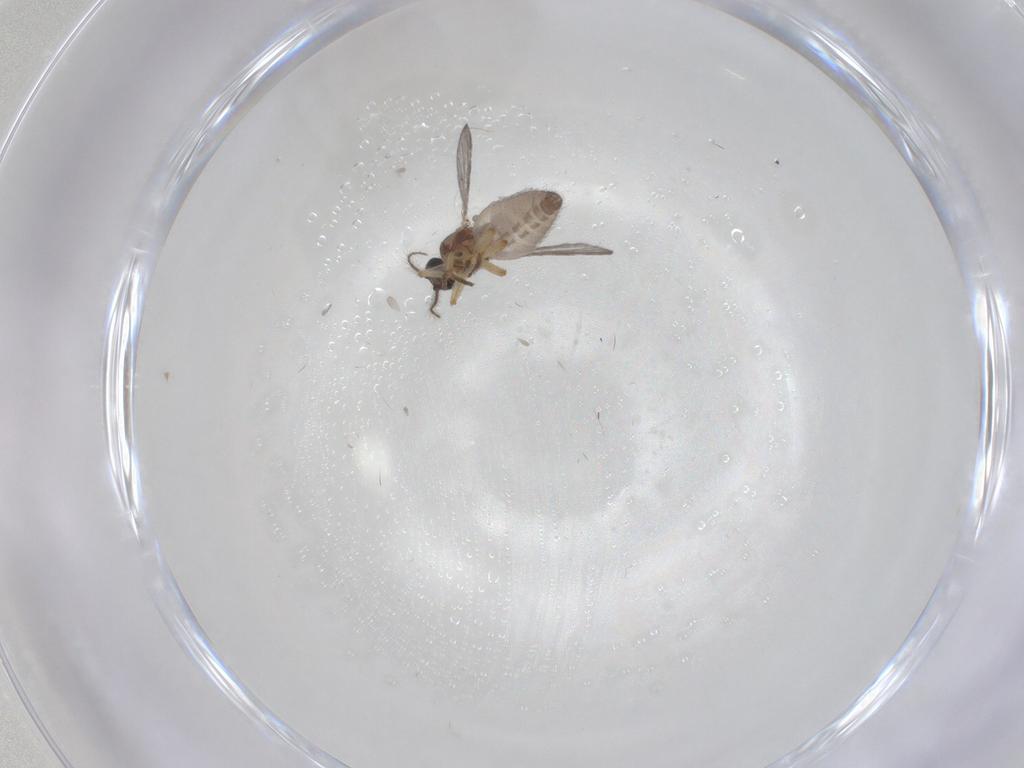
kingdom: Animalia
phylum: Arthropoda
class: Insecta
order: Diptera
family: Ceratopogonidae
